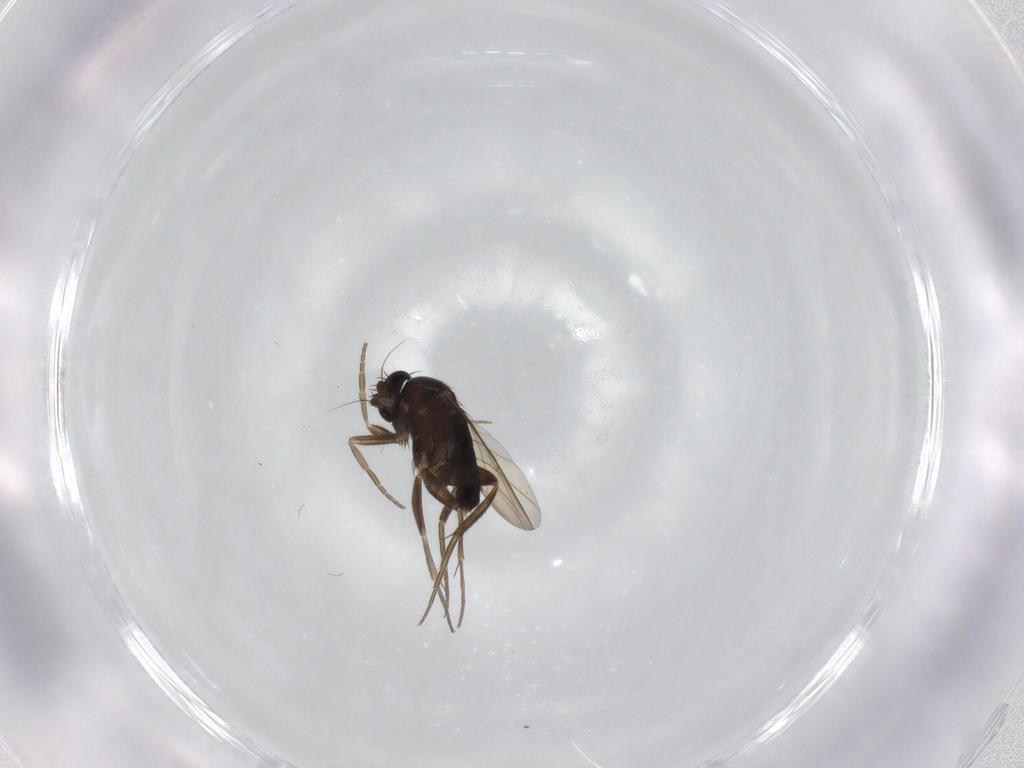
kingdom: Animalia
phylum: Arthropoda
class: Insecta
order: Diptera
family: Phoridae
